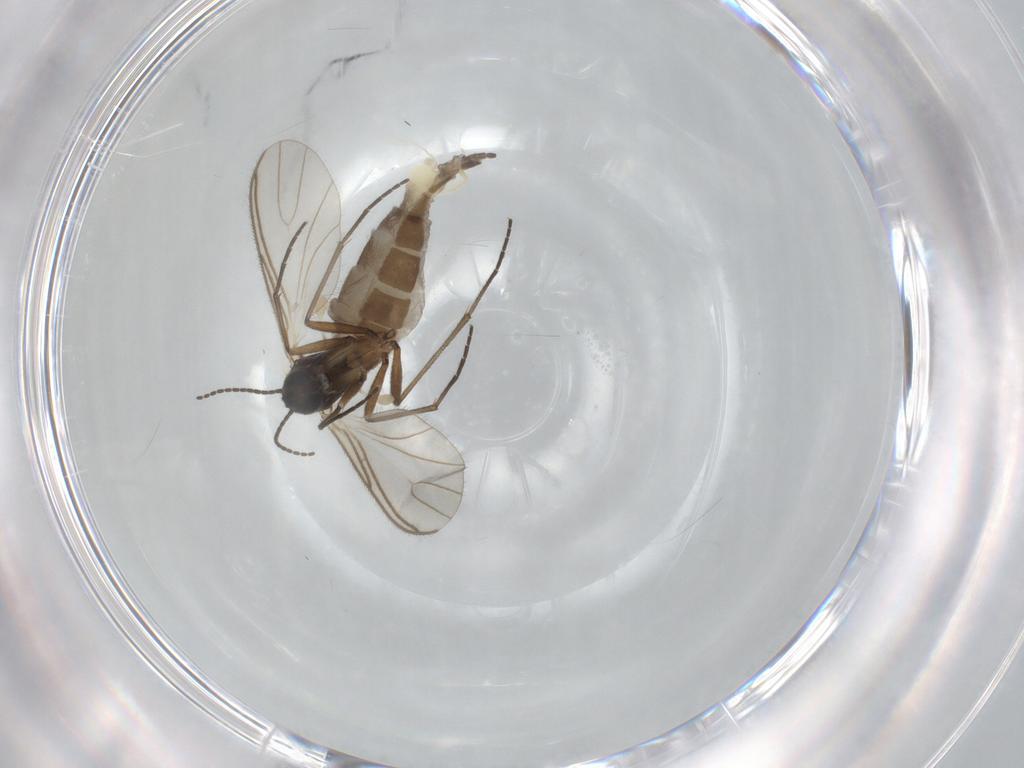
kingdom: Animalia
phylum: Arthropoda
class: Insecta
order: Diptera
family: Sciaridae
